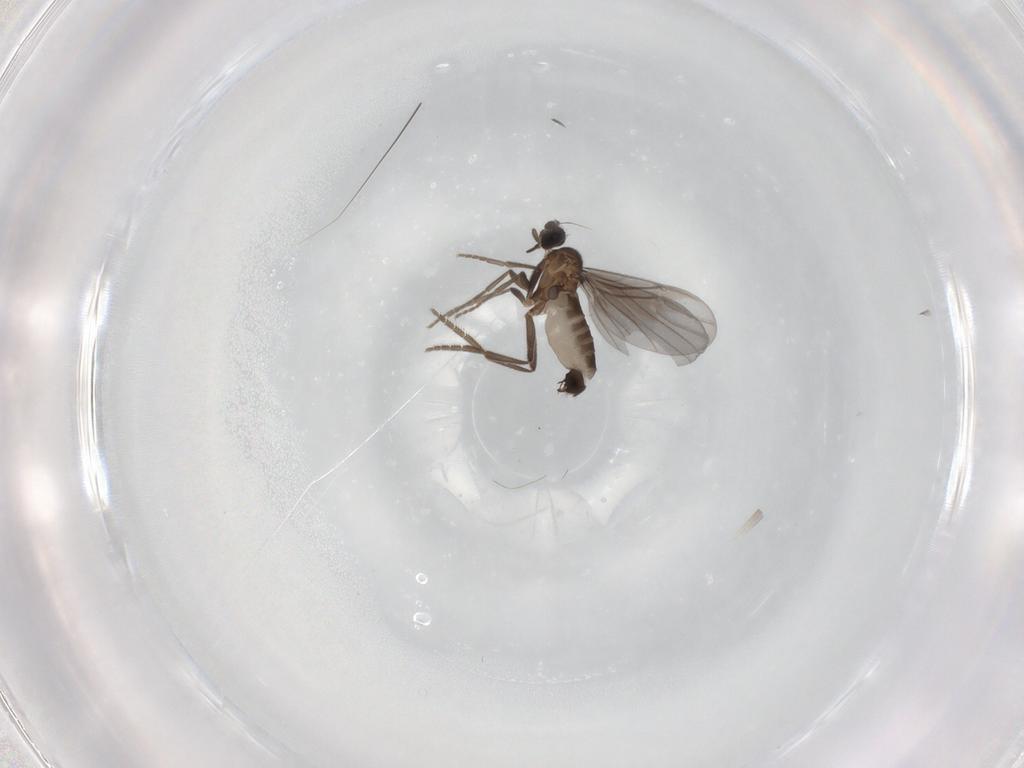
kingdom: Animalia
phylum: Arthropoda
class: Insecta
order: Diptera
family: Phoridae
